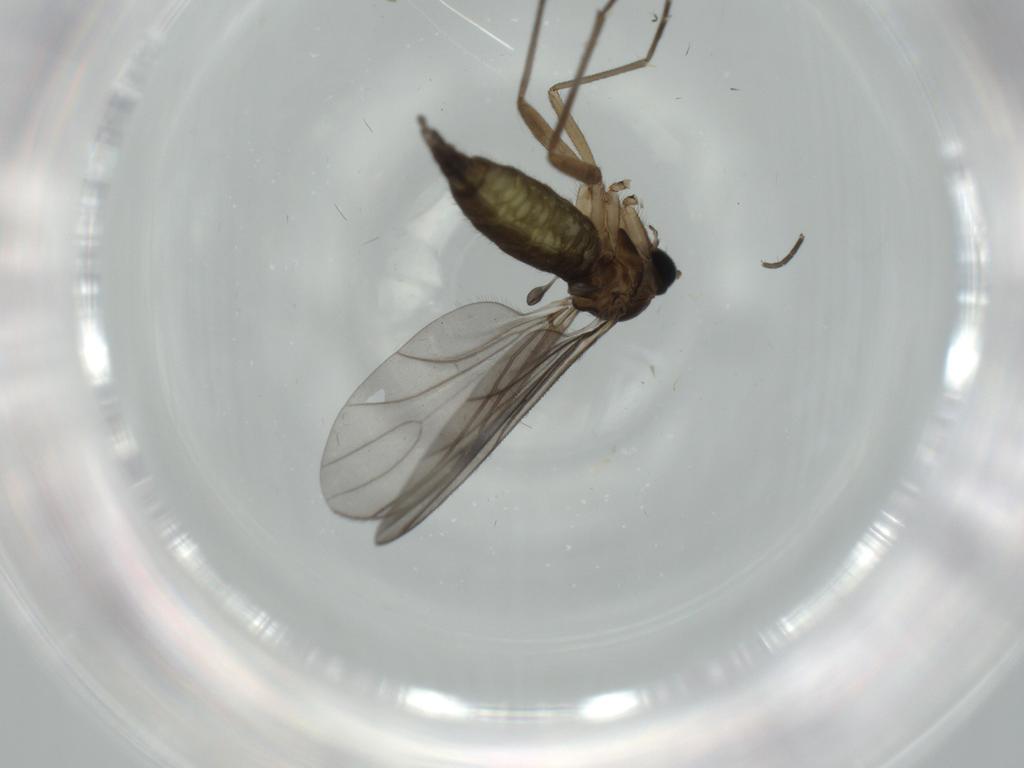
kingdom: Animalia
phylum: Arthropoda
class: Insecta
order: Diptera
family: Sciaridae
